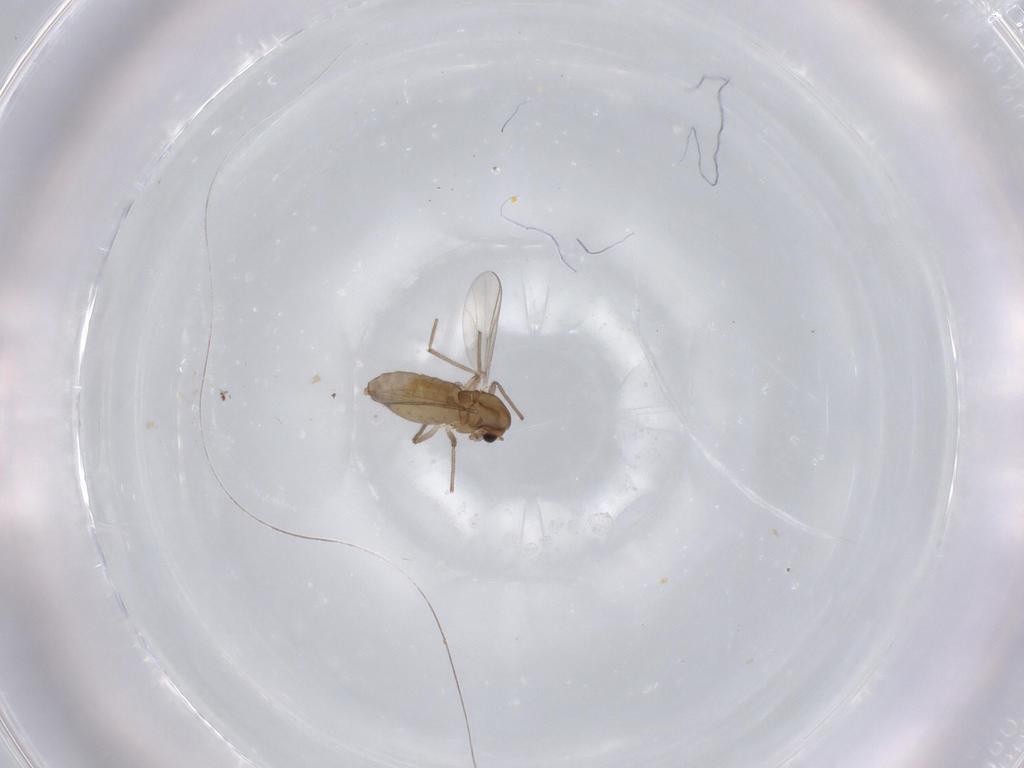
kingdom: Animalia
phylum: Arthropoda
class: Insecta
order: Diptera
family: Chironomidae
